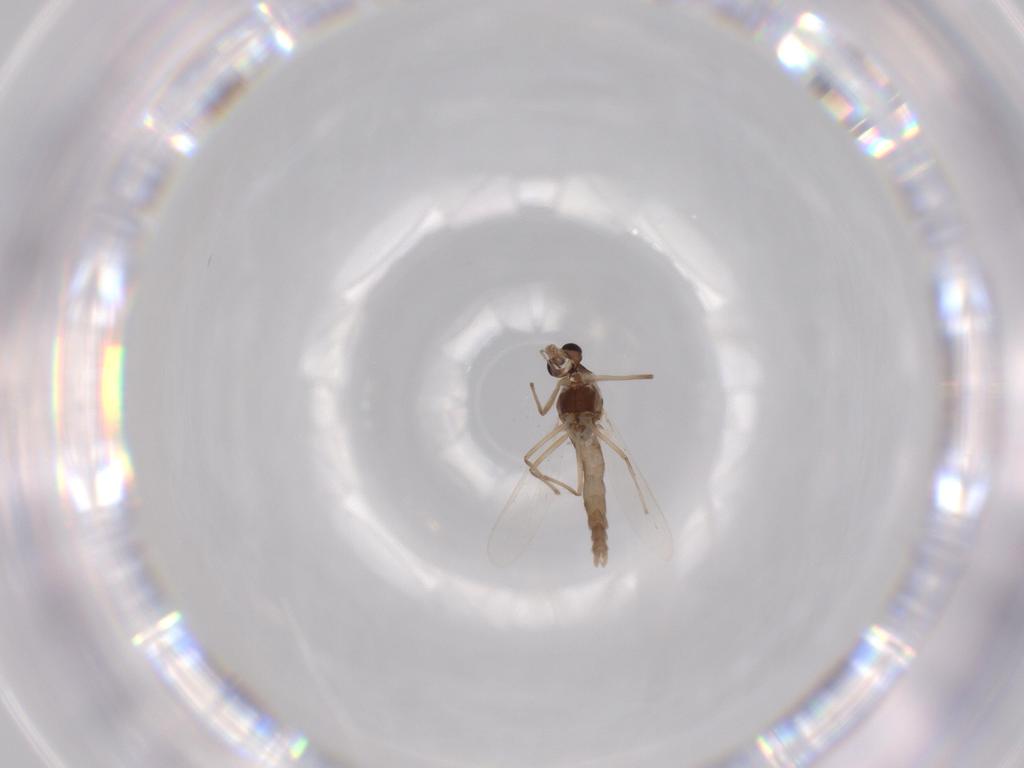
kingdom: Animalia
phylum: Arthropoda
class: Insecta
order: Diptera
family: Chironomidae
